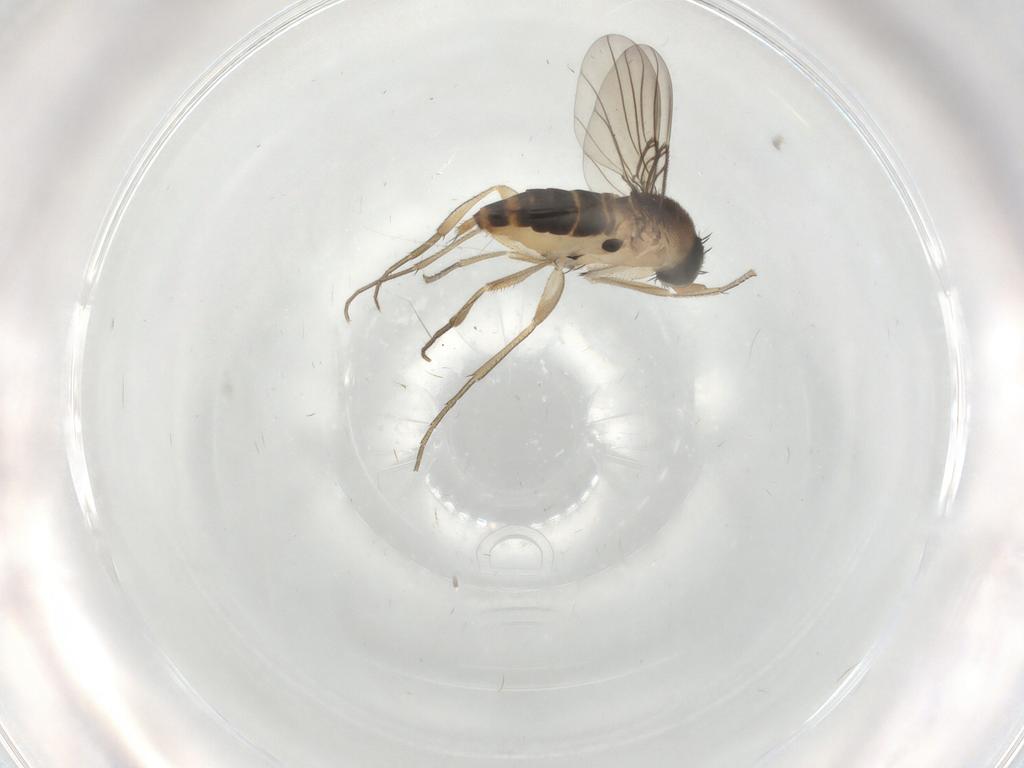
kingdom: Animalia
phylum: Arthropoda
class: Insecta
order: Diptera
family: Phoridae
